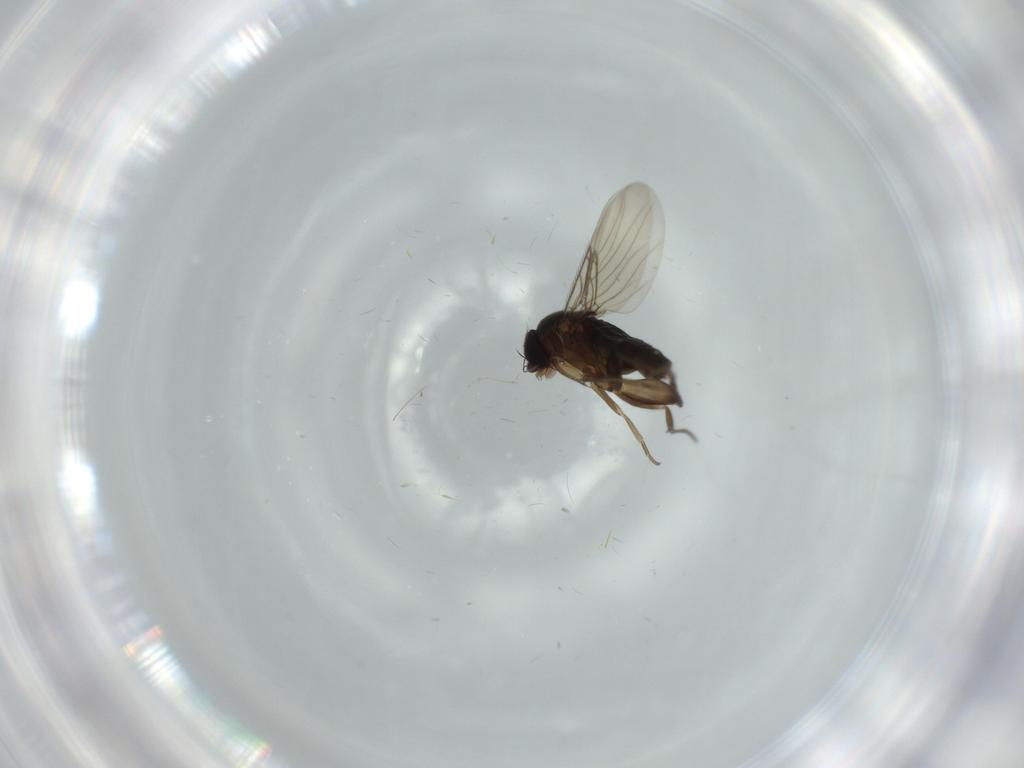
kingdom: Animalia
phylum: Arthropoda
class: Insecta
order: Diptera
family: Phoridae
